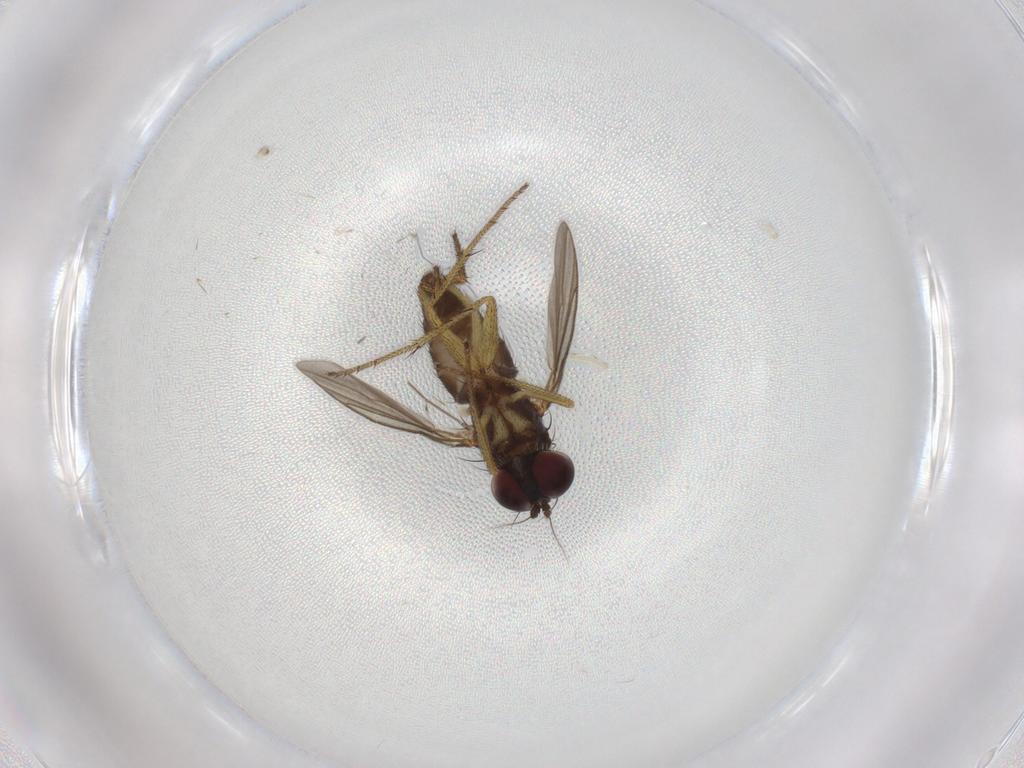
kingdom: Animalia
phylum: Arthropoda
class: Insecta
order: Diptera
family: Chironomidae
